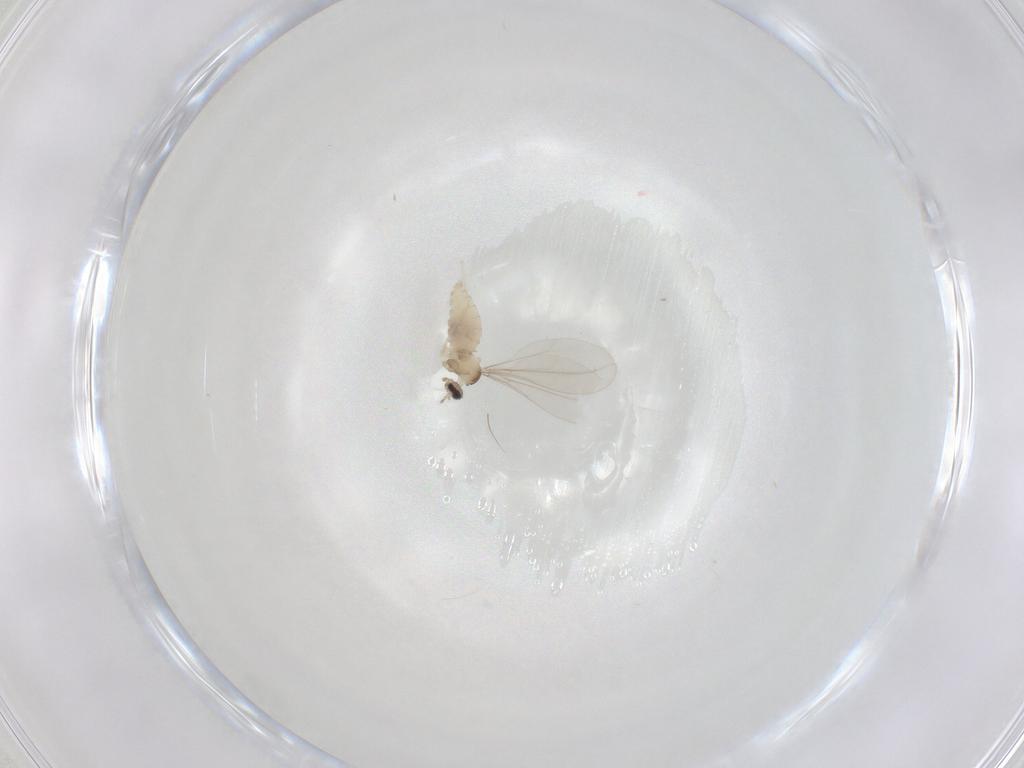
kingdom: Animalia
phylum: Arthropoda
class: Insecta
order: Diptera
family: Cecidomyiidae
